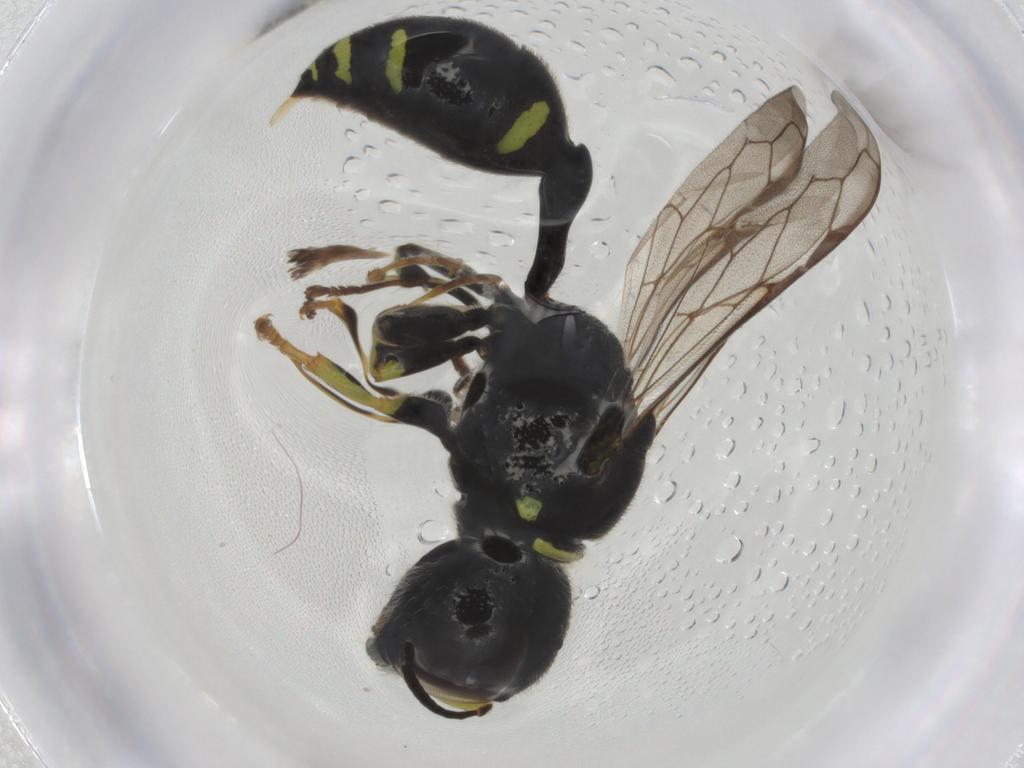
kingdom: Animalia
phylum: Arthropoda
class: Insecta
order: Hymenoptera
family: Crabronidae
